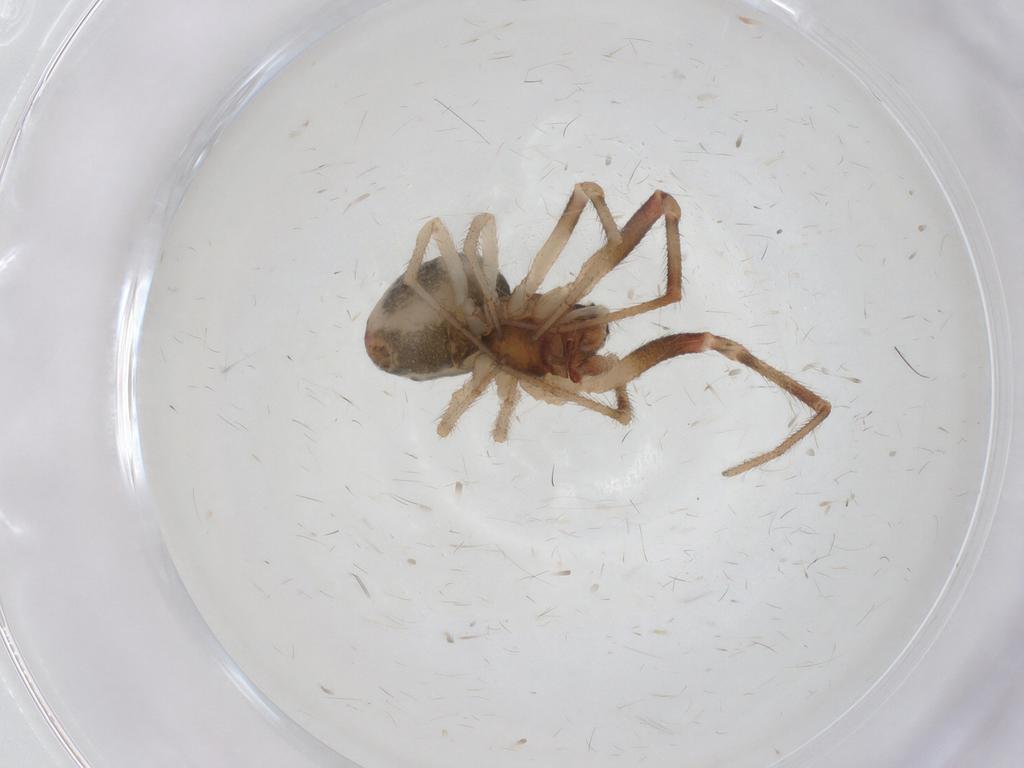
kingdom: Animalia
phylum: Arthropoda
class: Arachnida
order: Araneae
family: Theridiidae
